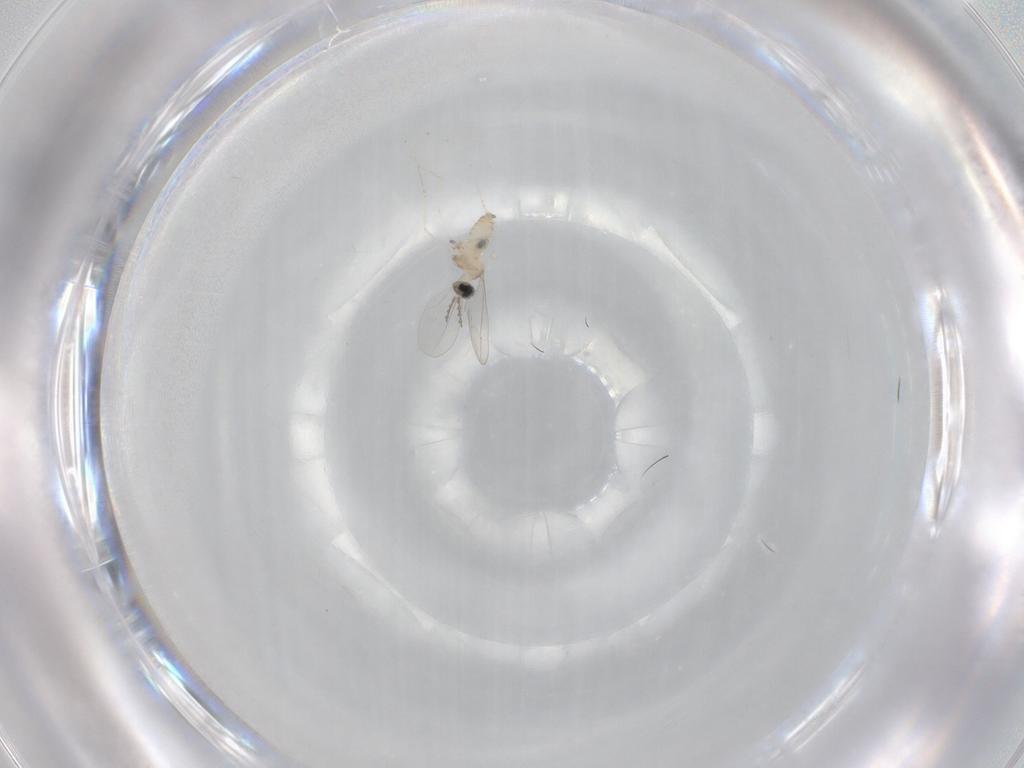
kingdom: Animalia
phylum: Arthropoda
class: Insecta
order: Diptera
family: Cecidomyiidae
